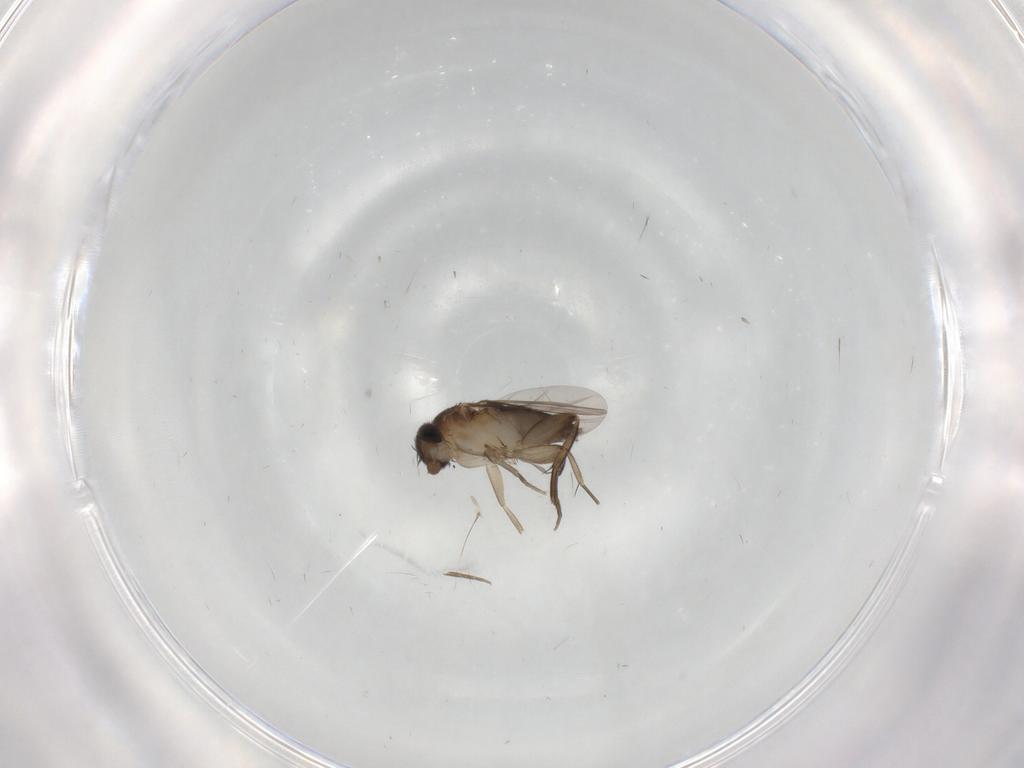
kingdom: Animalia
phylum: Arthropoda
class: Insecta
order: Diptera
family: Phoridae
